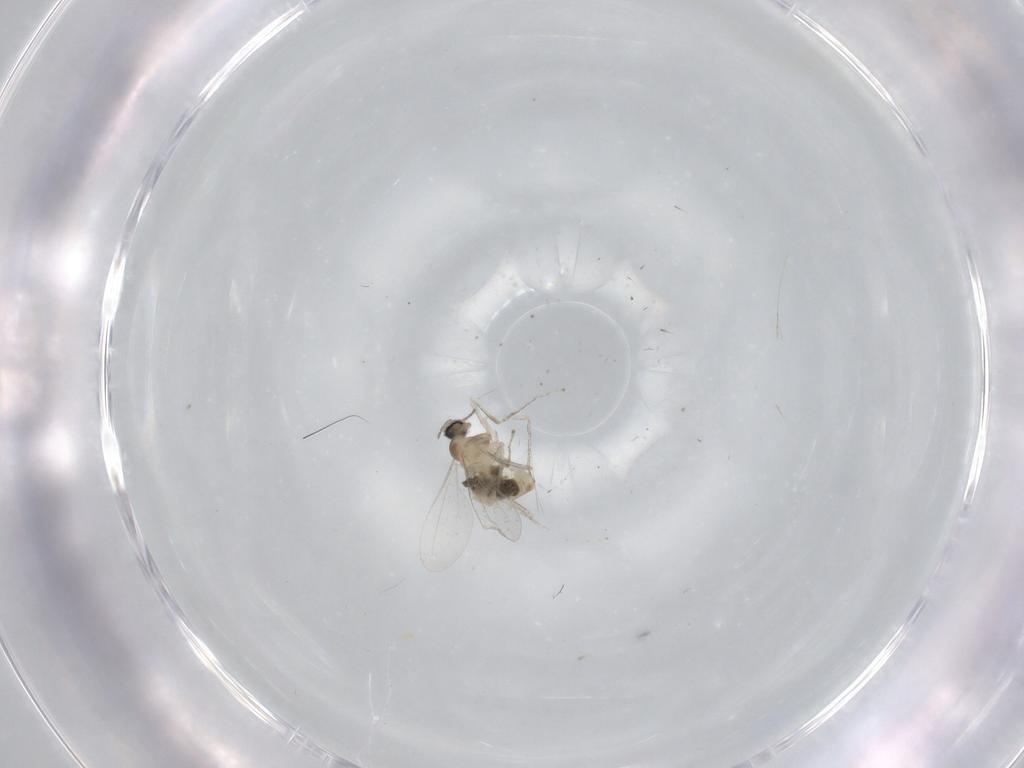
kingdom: Animalia
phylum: Arthropoda
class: Insecta
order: Diptera
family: Cecidomyiidae
